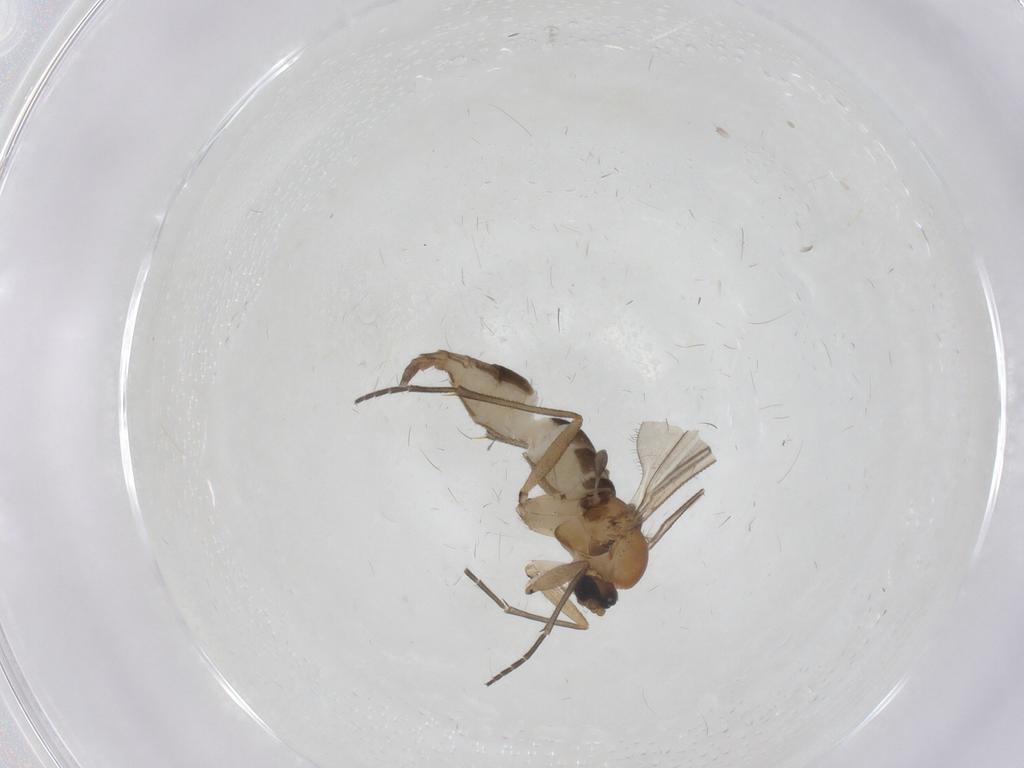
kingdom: Animalia
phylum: Arthropoda
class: Insecta
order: Diptera
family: Sciaridae
